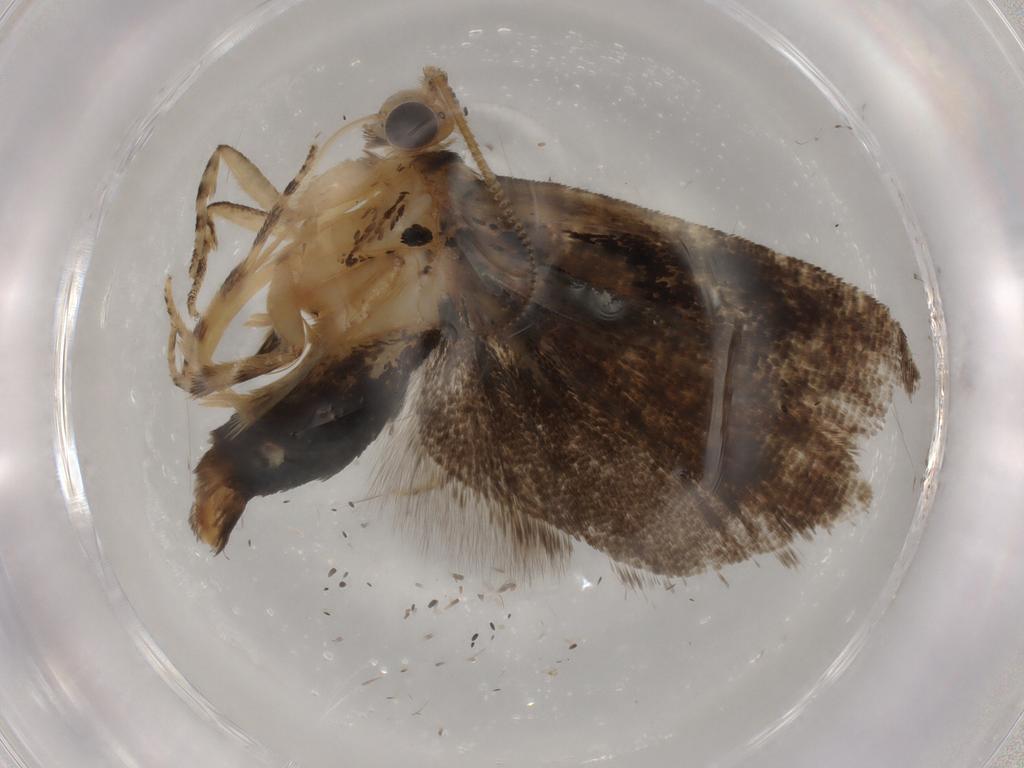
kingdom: Animalia
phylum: Arthropoda
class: Insecta
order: Lepidoptera
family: Tortricidae
